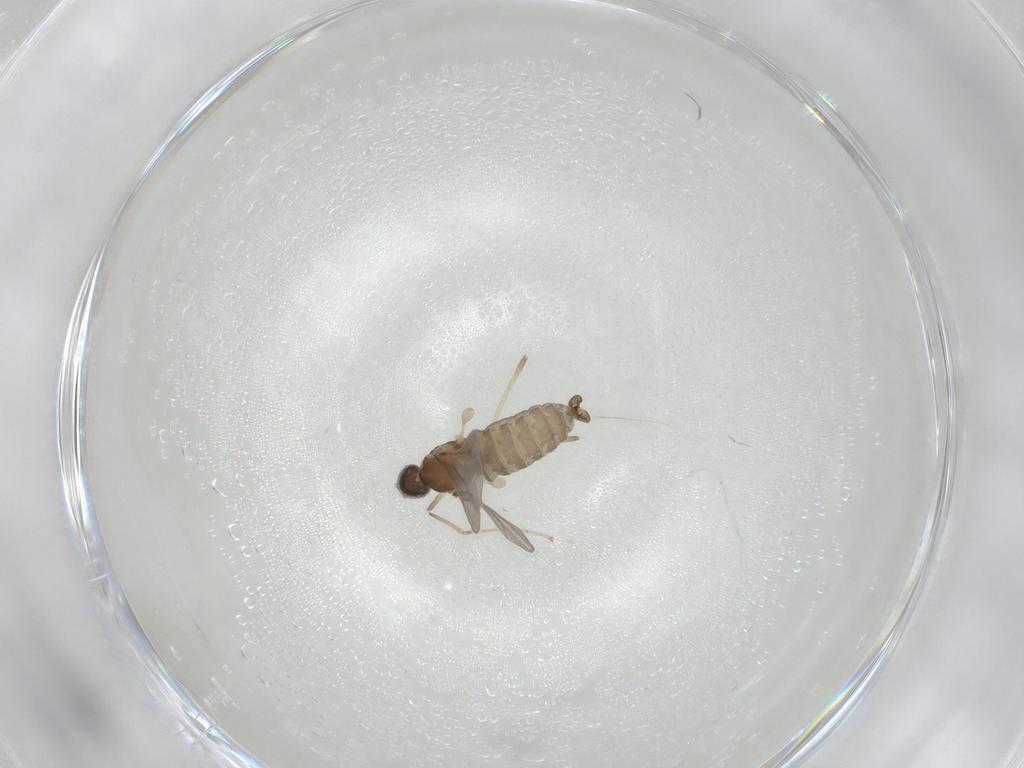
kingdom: Animalia
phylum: Arthropoda
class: Insecta
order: Diptera
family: Cecidomyiidae
